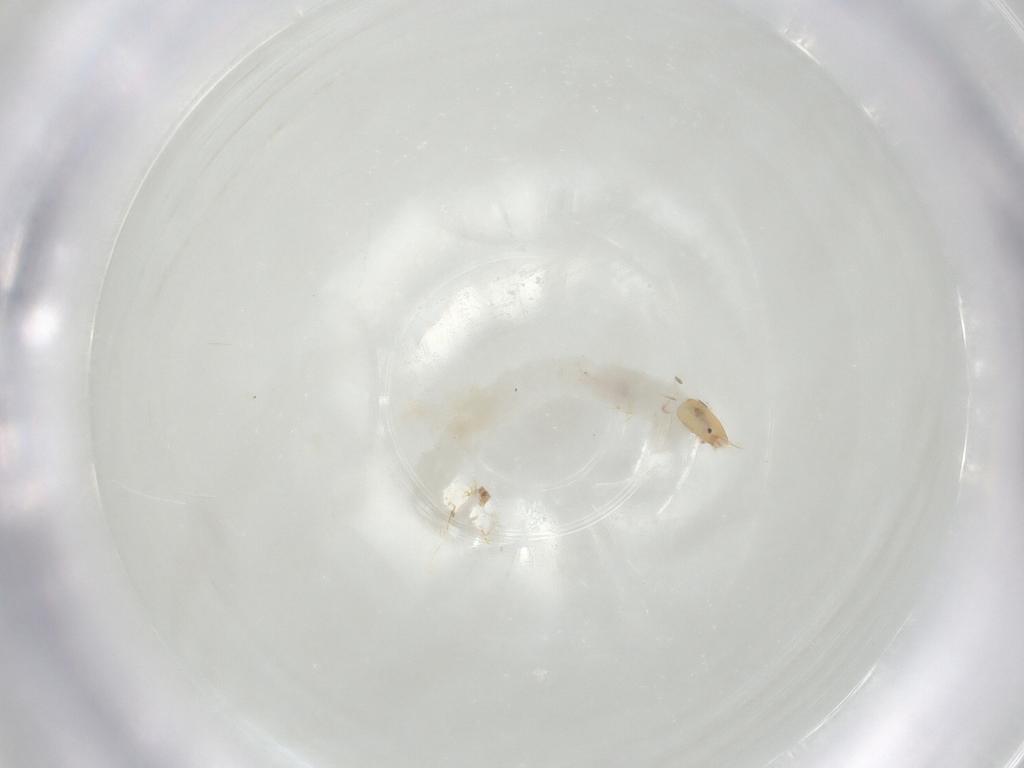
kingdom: Animalia
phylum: Arthropoda
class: Insecta
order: Diptera
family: Chironomidae
